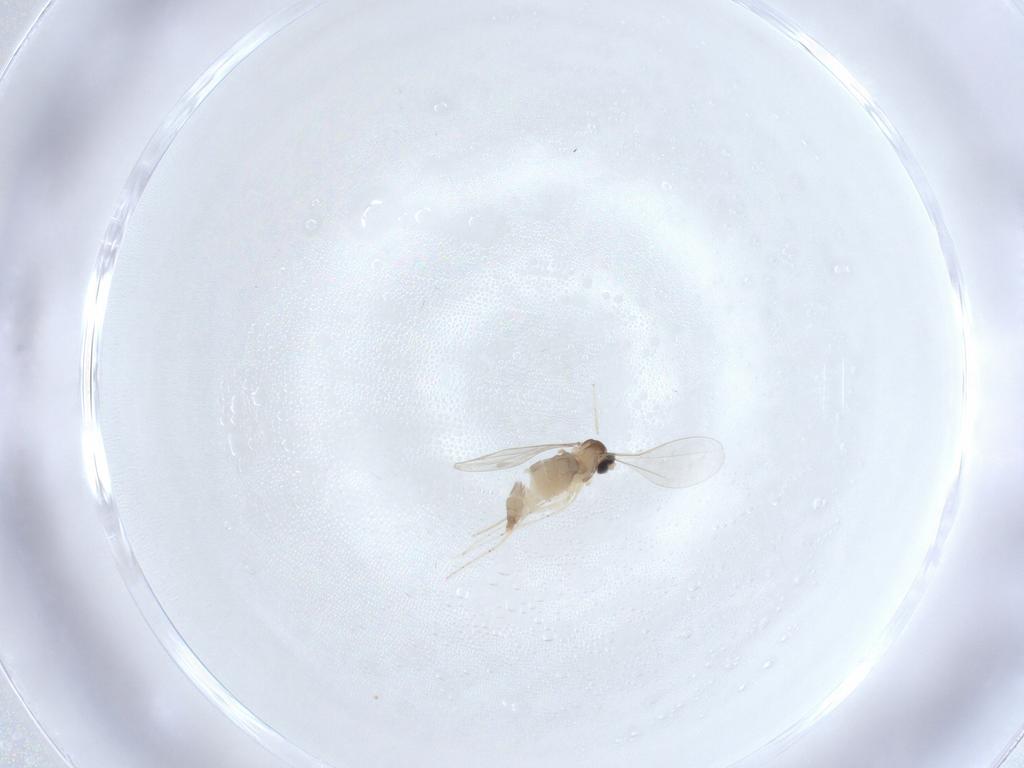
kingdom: Animalia
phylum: Arthropoda
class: Insecta
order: Diptera
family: Cecidomyiidae
